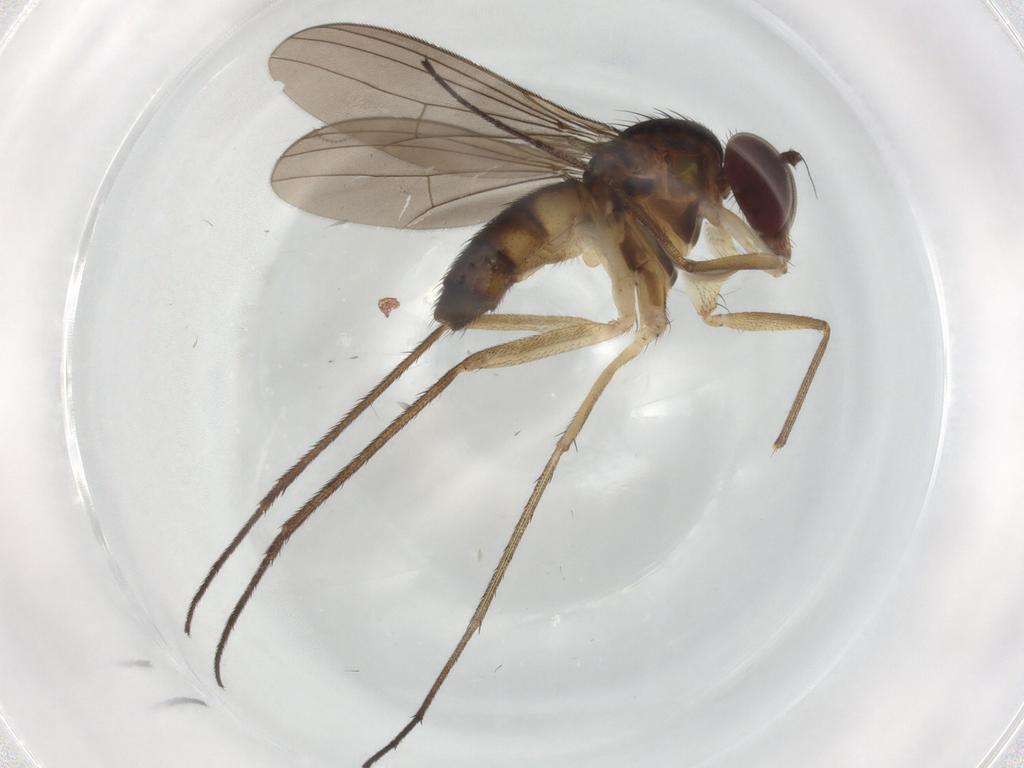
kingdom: Animalia
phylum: Arthropoda
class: Insecta
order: Diptera
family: Dolichopodidae
